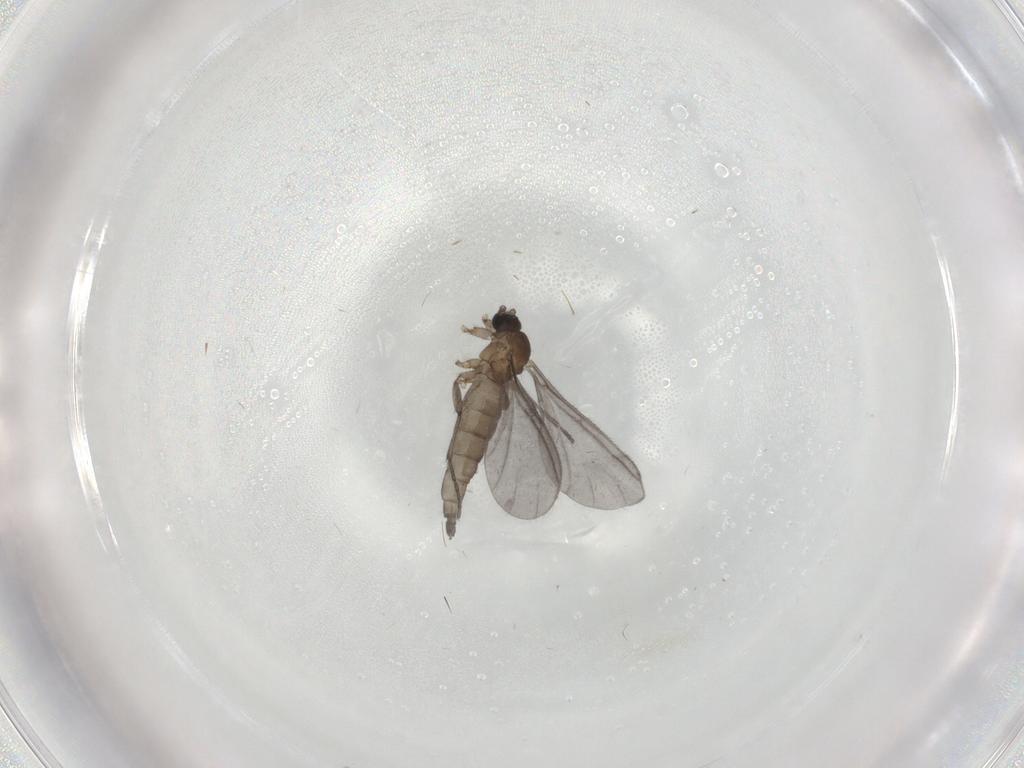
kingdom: Animalia
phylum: Arthropoda
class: Insecta
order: Diptera
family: Sciaridae
